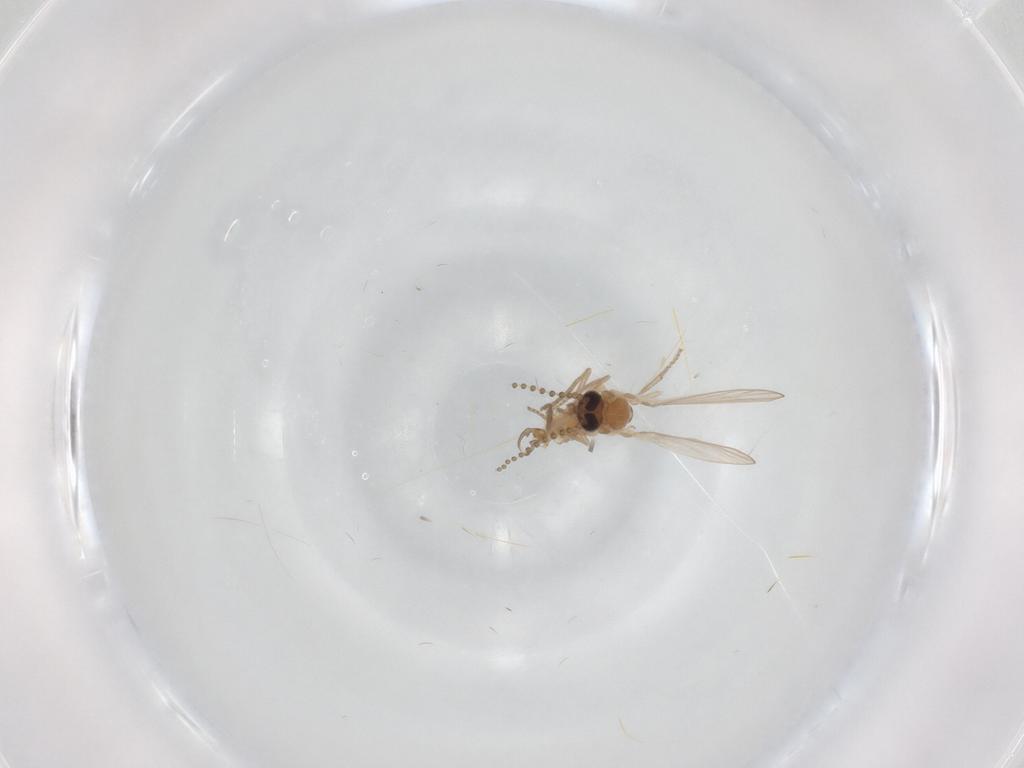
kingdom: Animalia
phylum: Arthropoda
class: Insecta
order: Diptera
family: Psychodidae
